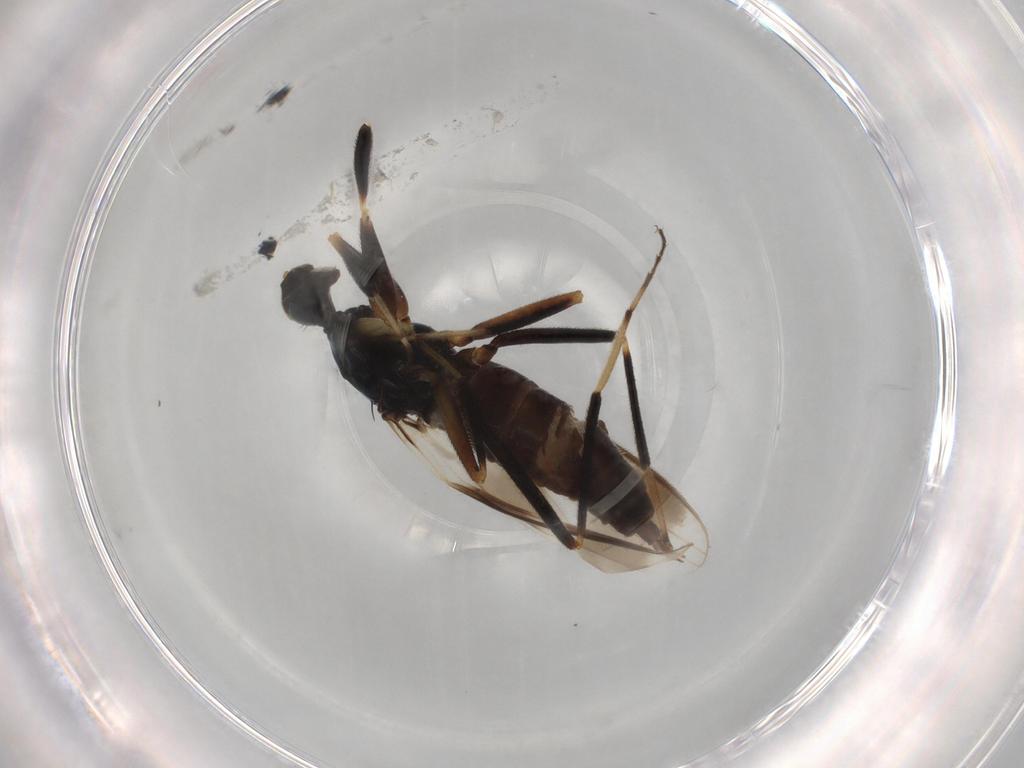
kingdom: Animalia
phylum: Arthropoda
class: Insecta
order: Diptera
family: Hybotidae
